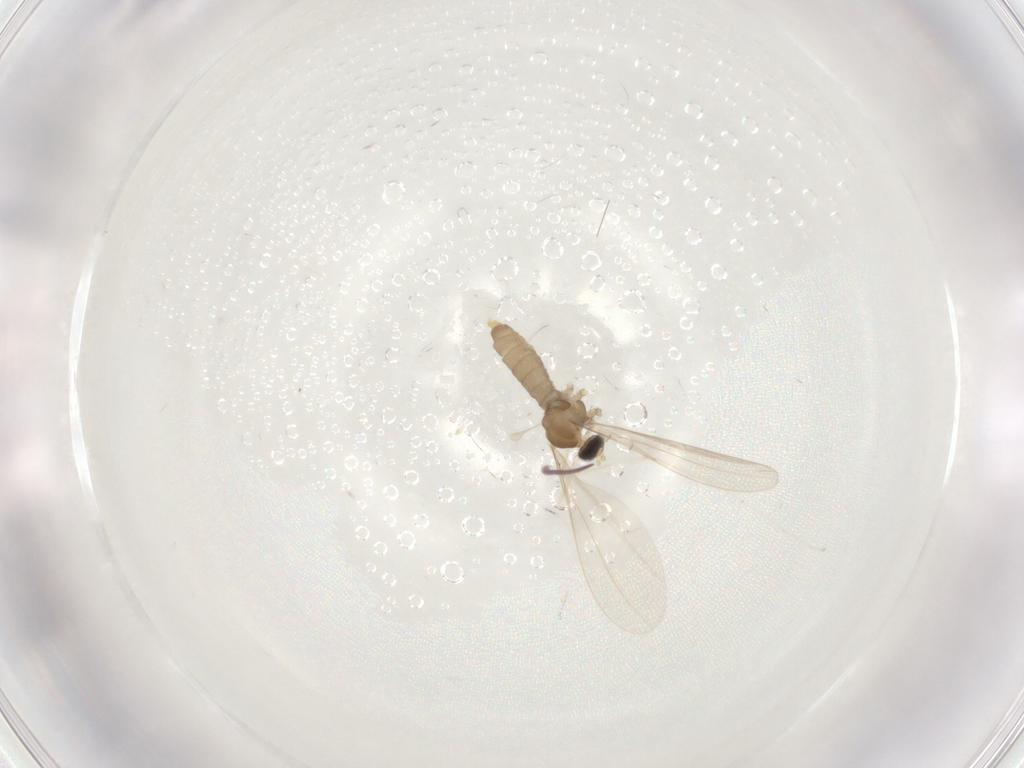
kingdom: Animalia
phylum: Arthropoda
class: Insecta
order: Diptera
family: Cecidomyiidae
